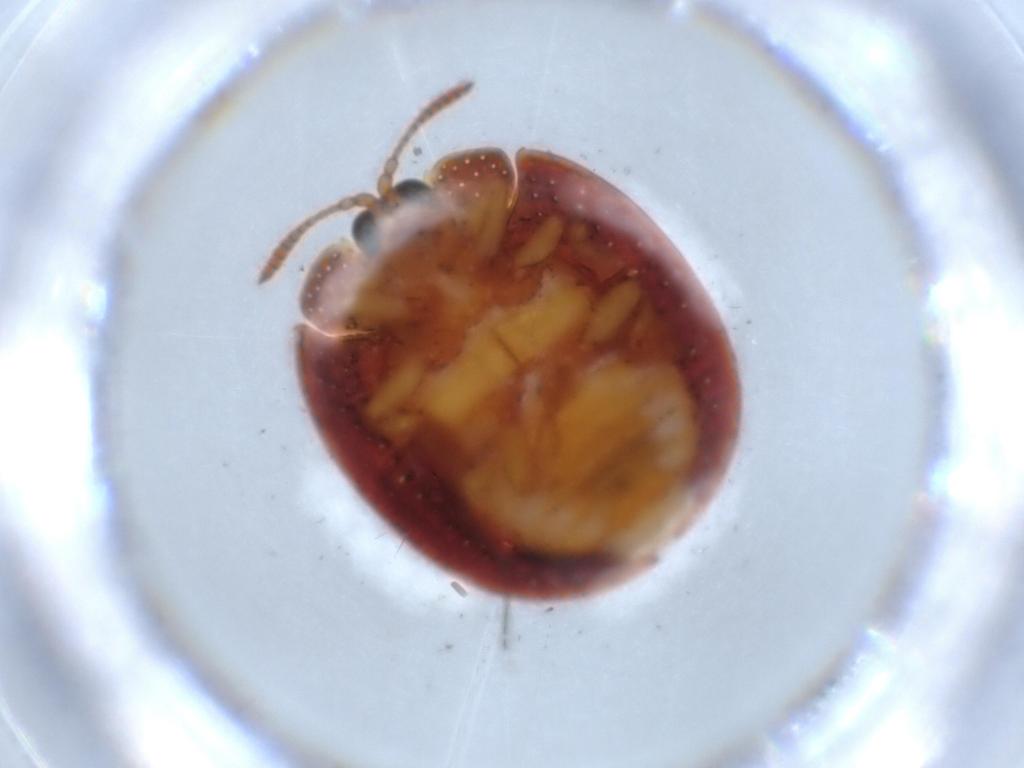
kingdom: Animalia
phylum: Arthropoda
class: Insecta
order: Coleoptera
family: Chrysomelidae
